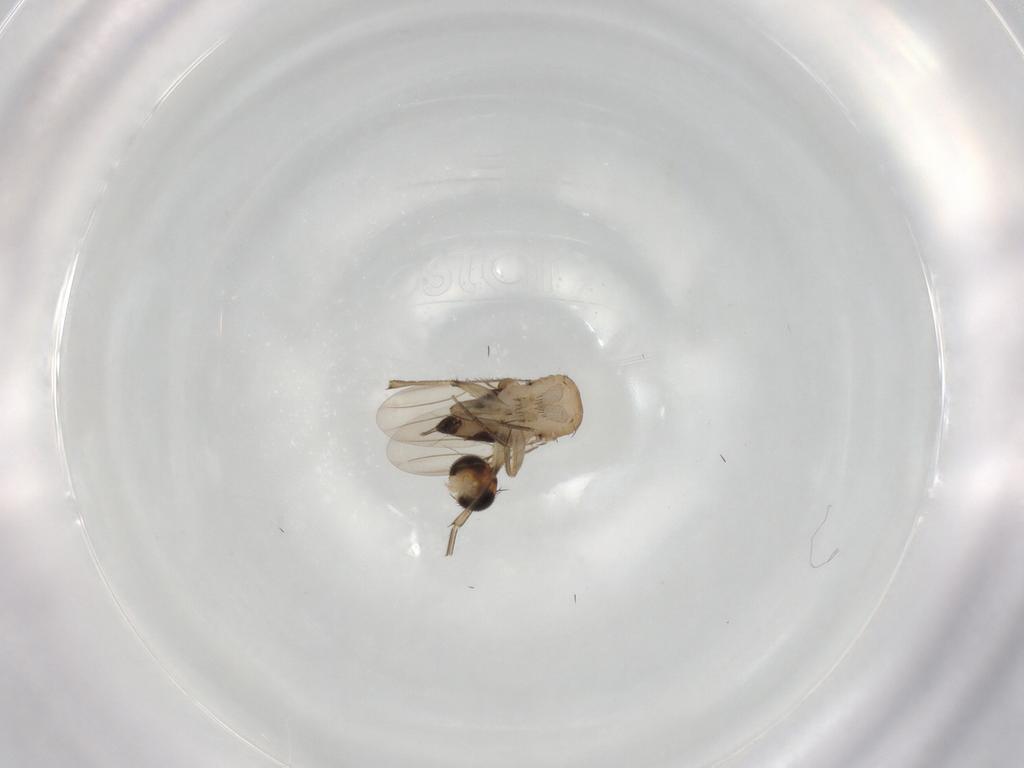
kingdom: Animalia
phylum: Arthropoda
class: Insecta
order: Diptera
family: Phoridae
